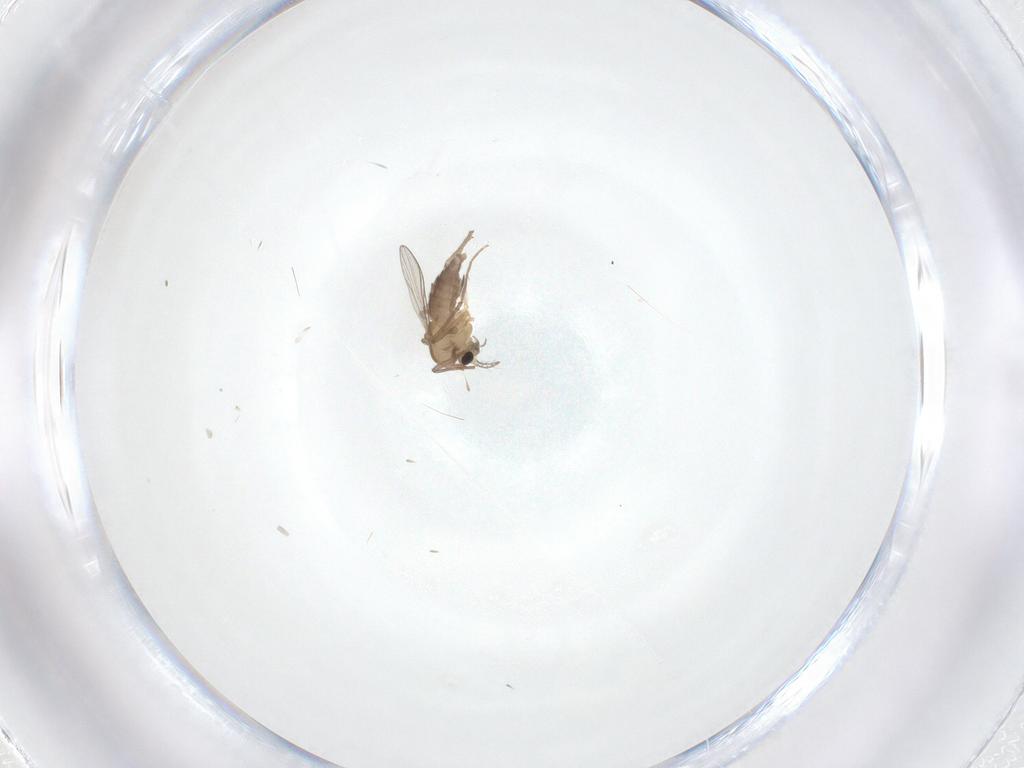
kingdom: Animalia
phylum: Arthropoda
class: Insecta
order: Diptera
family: Chironomidae
